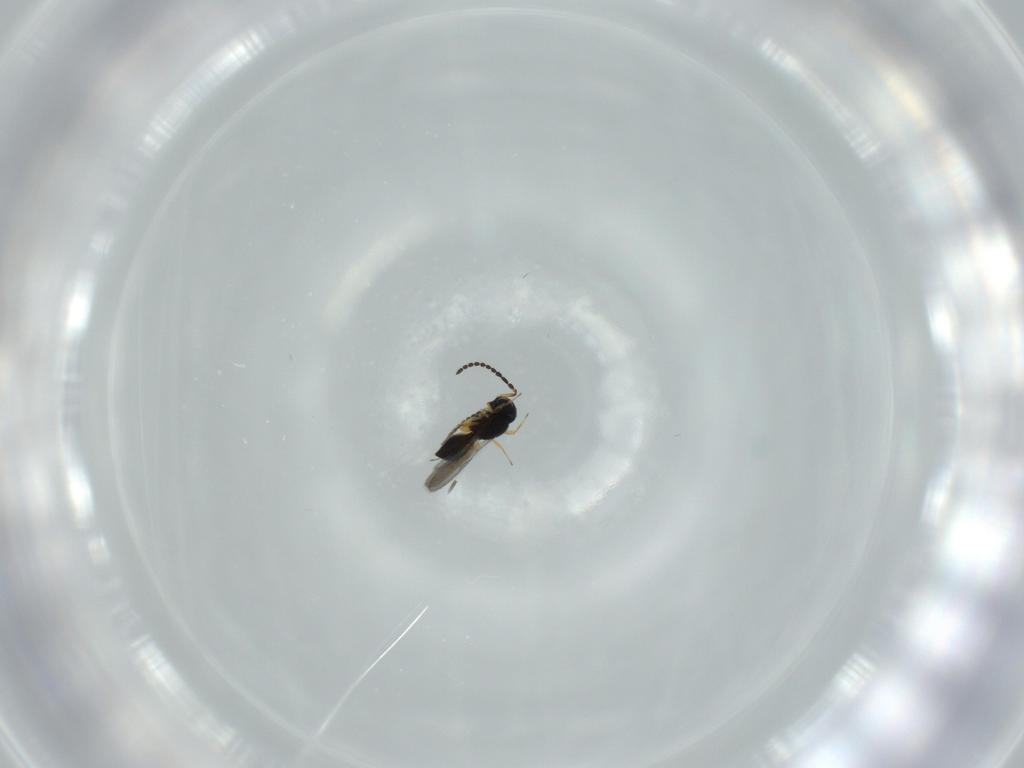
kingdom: Animalia
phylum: Arthropoda
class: Insecta
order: Hymenoptera
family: Scelionidae
